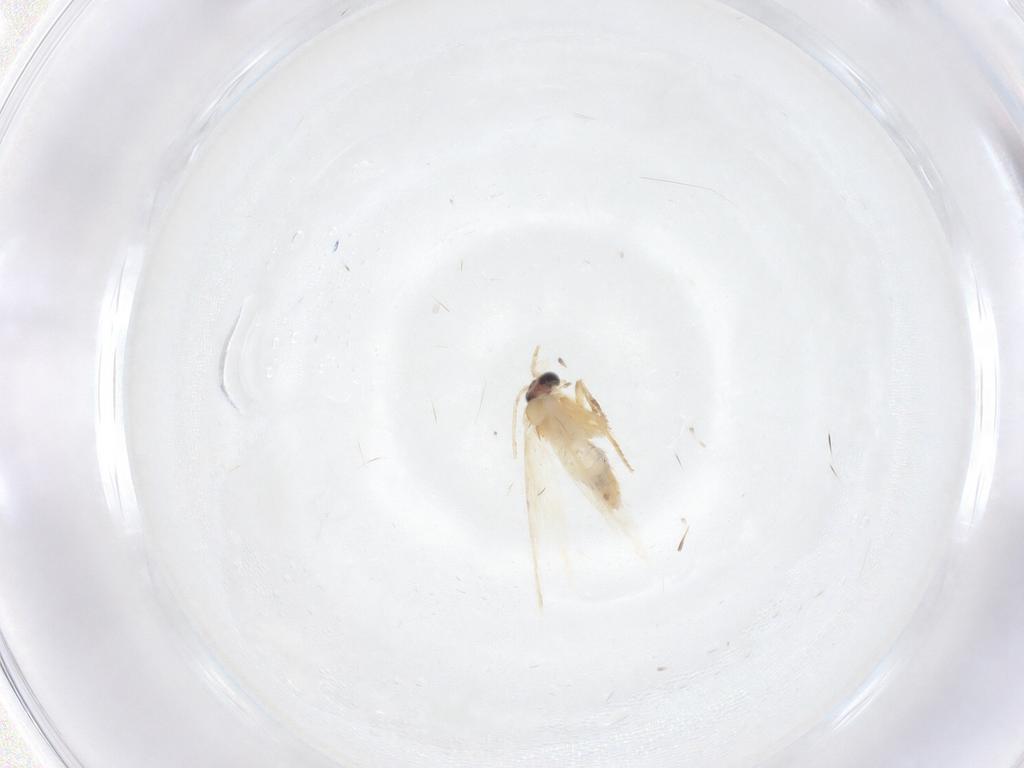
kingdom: Animalia
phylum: Arthropoda
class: Insecta
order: Lepidoptera
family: Nepticulidae
